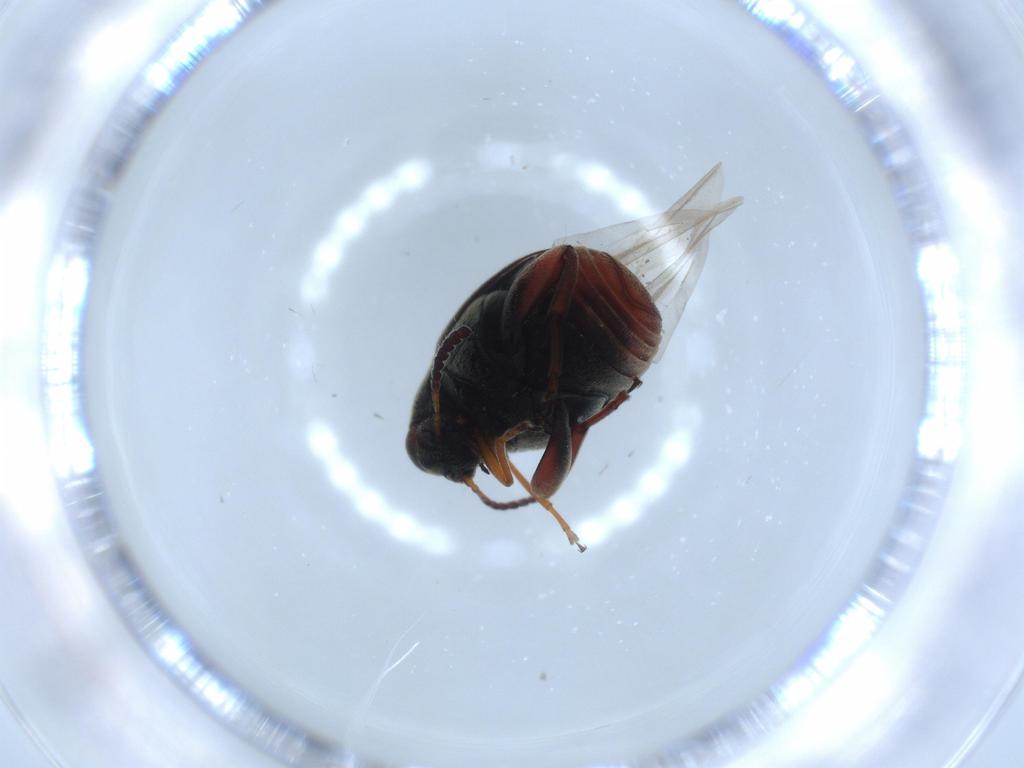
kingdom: Animalia
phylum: Arthropoda
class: Insecta
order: Coleoptera
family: Chrysomelidae
